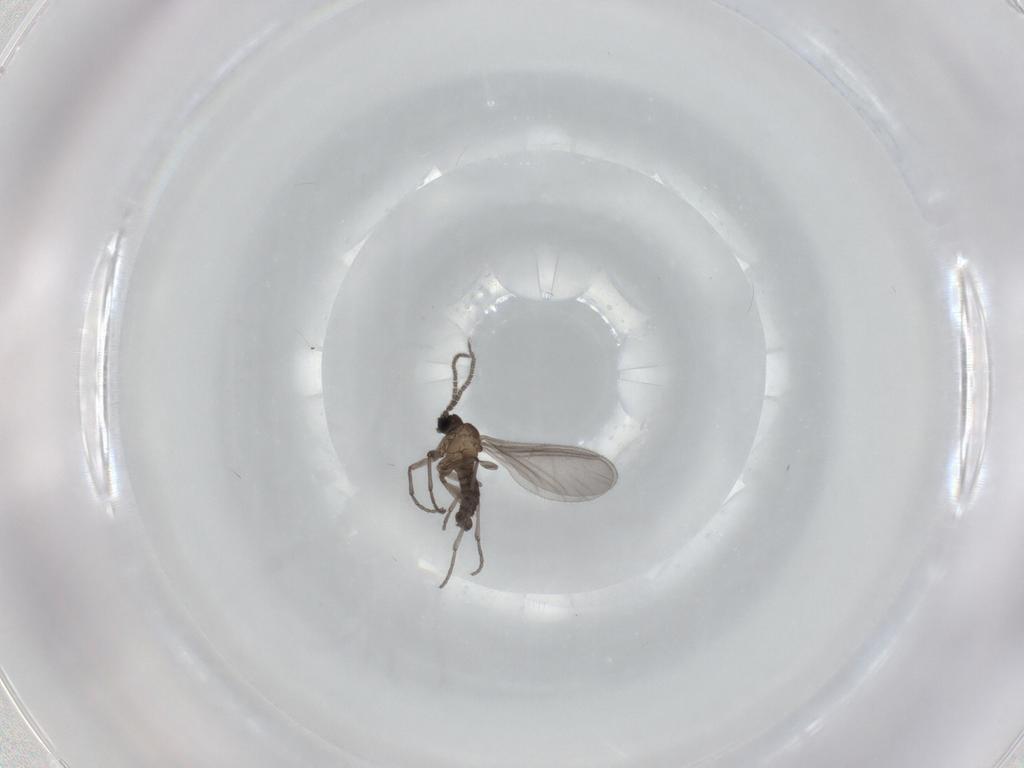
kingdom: Animalia
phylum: Arthropoda
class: Insecta
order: Diptera
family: Sciaridae
